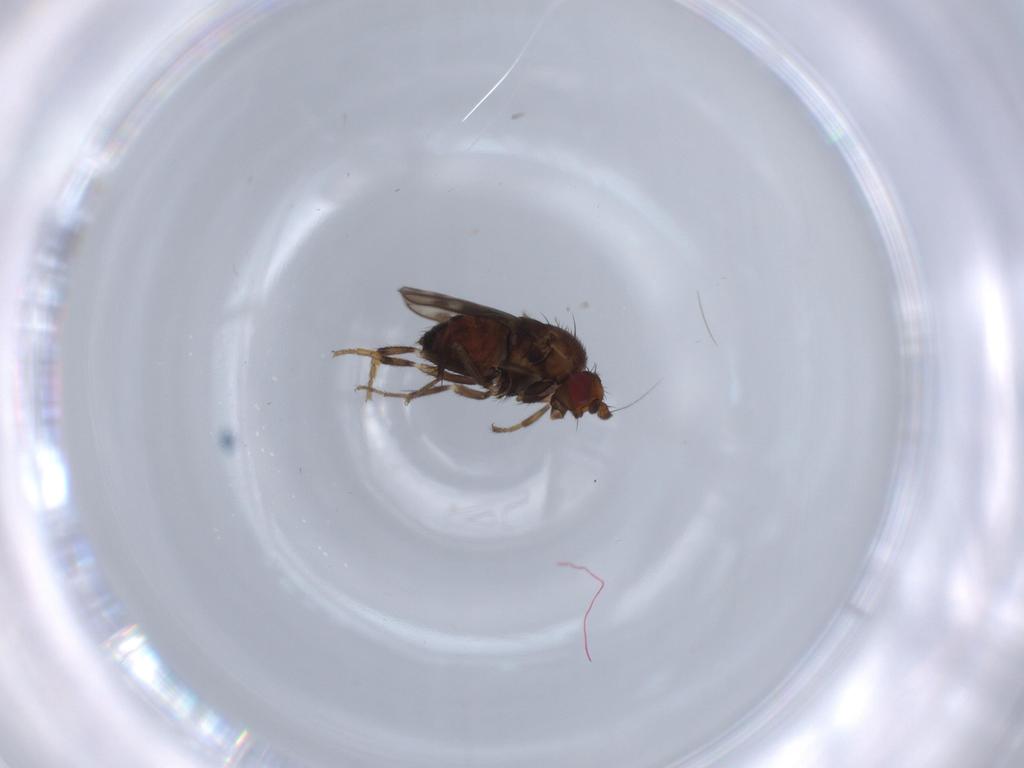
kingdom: Animalia
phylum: Arthropoda
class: Insecta
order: Diptera
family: Sphaeroceridae
